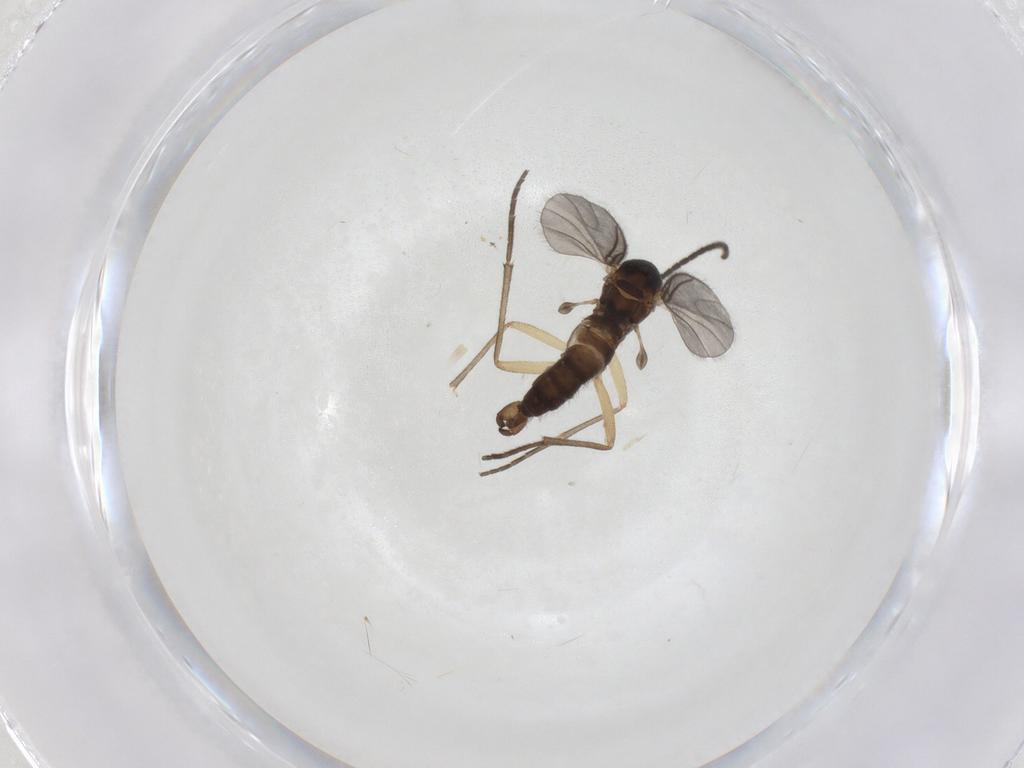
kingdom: Animalia
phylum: Arthropoda
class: Insecta
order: Diptera
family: Sciaridae
